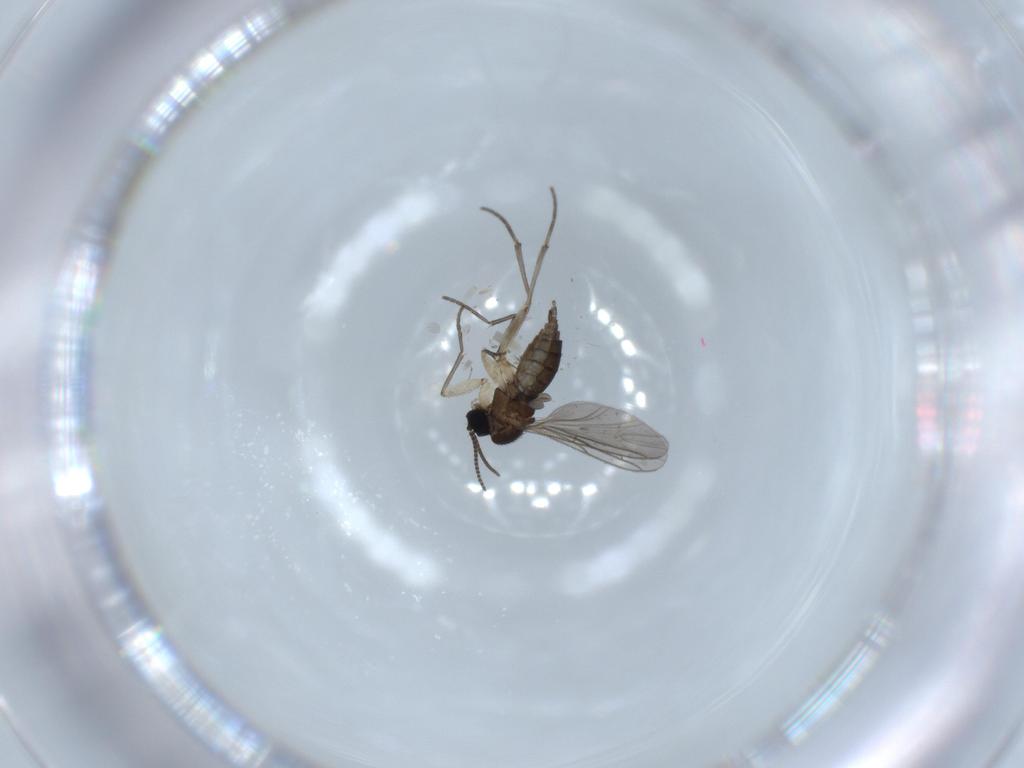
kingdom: Animalia
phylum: Arthropoda
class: Insecta
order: Diptera
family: Sciaridae
